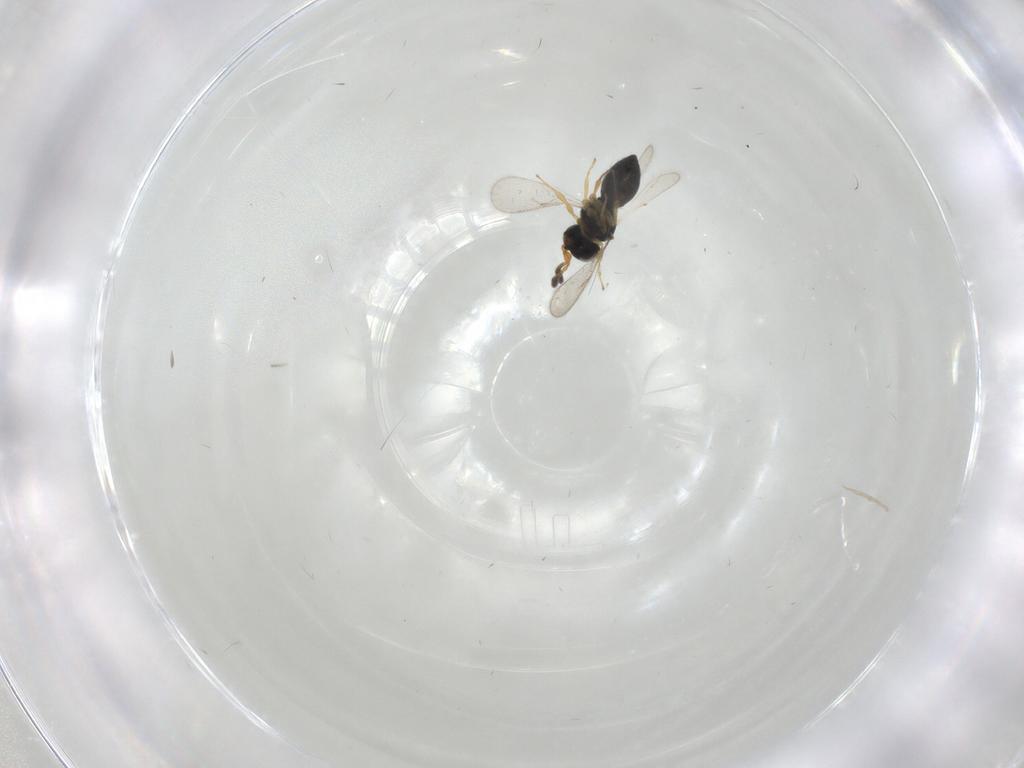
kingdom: Animalia
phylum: Arthropoda
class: Insecta
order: Hymenoptera
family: Scelionidae
